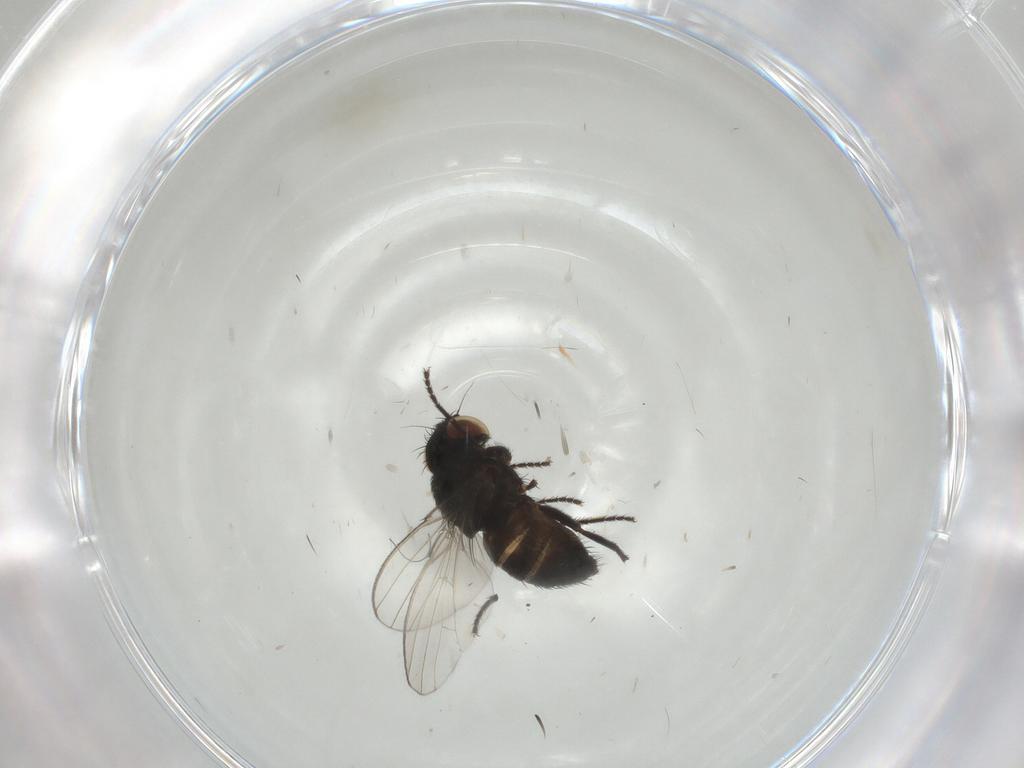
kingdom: Animalia
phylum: Arthropoda
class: Insecta
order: Diptera
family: Milichiidae
